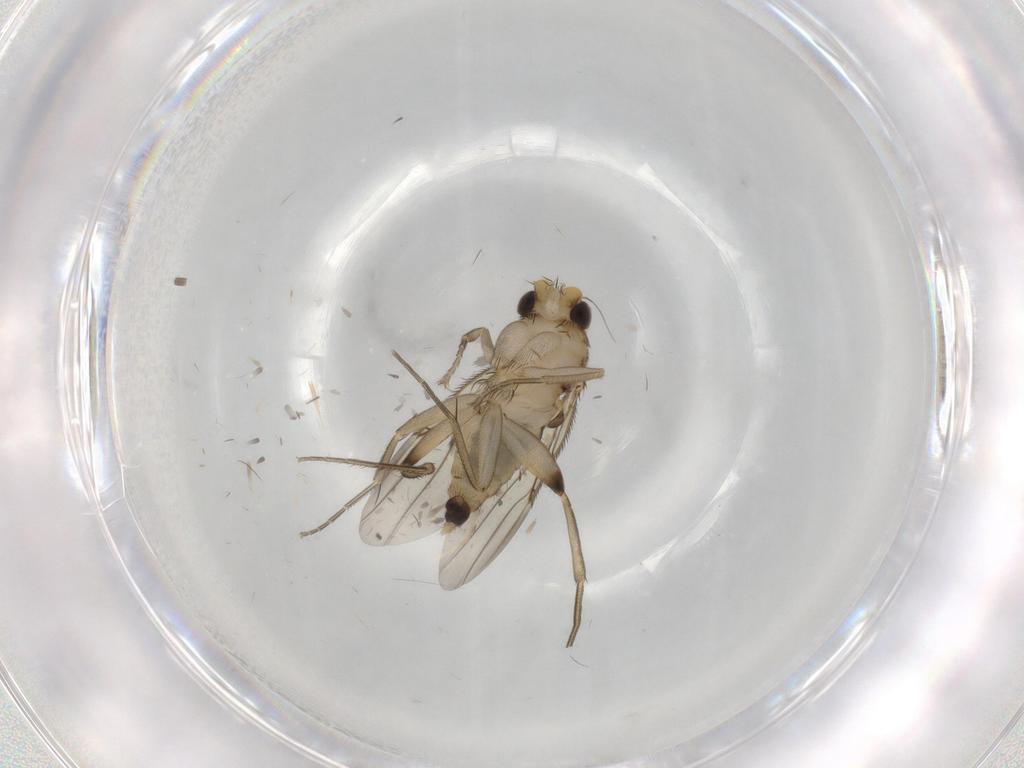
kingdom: Animalia
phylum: Arthropoda
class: Insecta
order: Diptera
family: Phoridae
